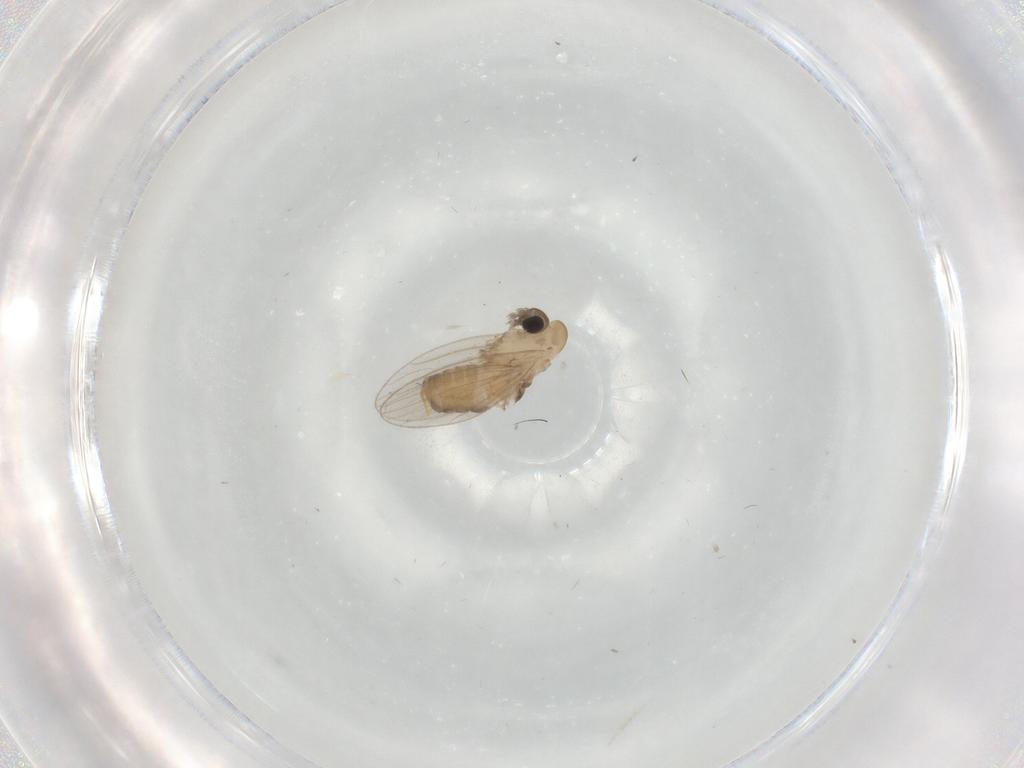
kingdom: Animalia
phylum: Arthropoda
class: Insecta
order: Diptera
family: Psychodidae
